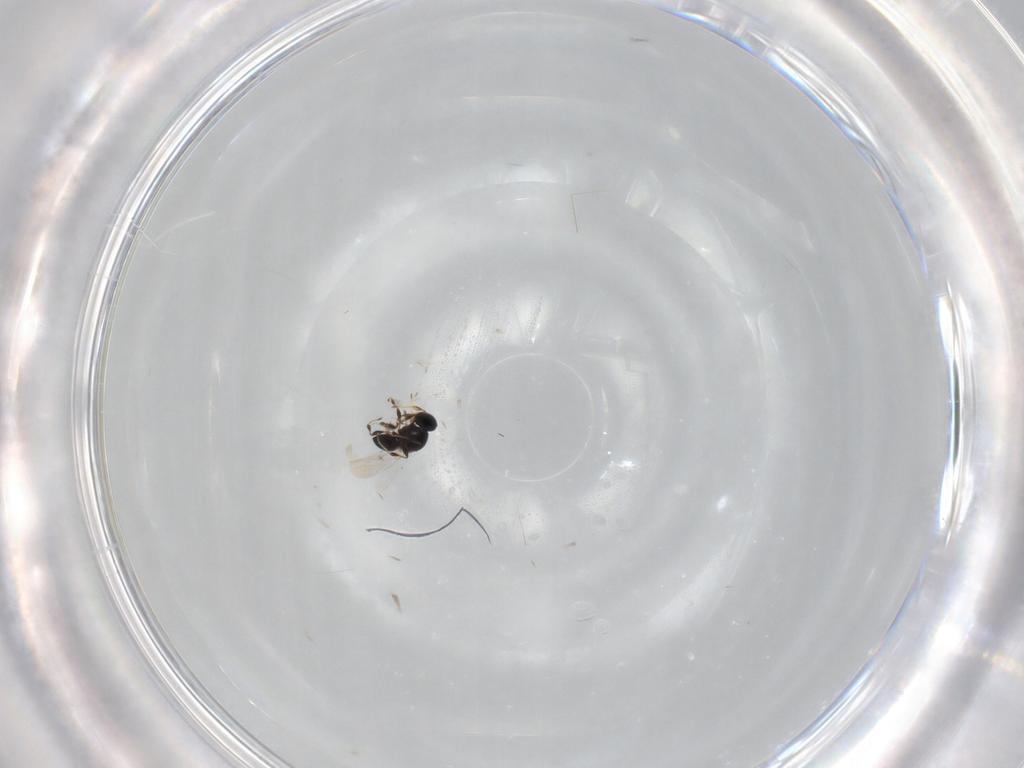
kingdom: Animalia
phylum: Arthropoda
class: Insecta
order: Hymenoptera
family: Platygastridae
